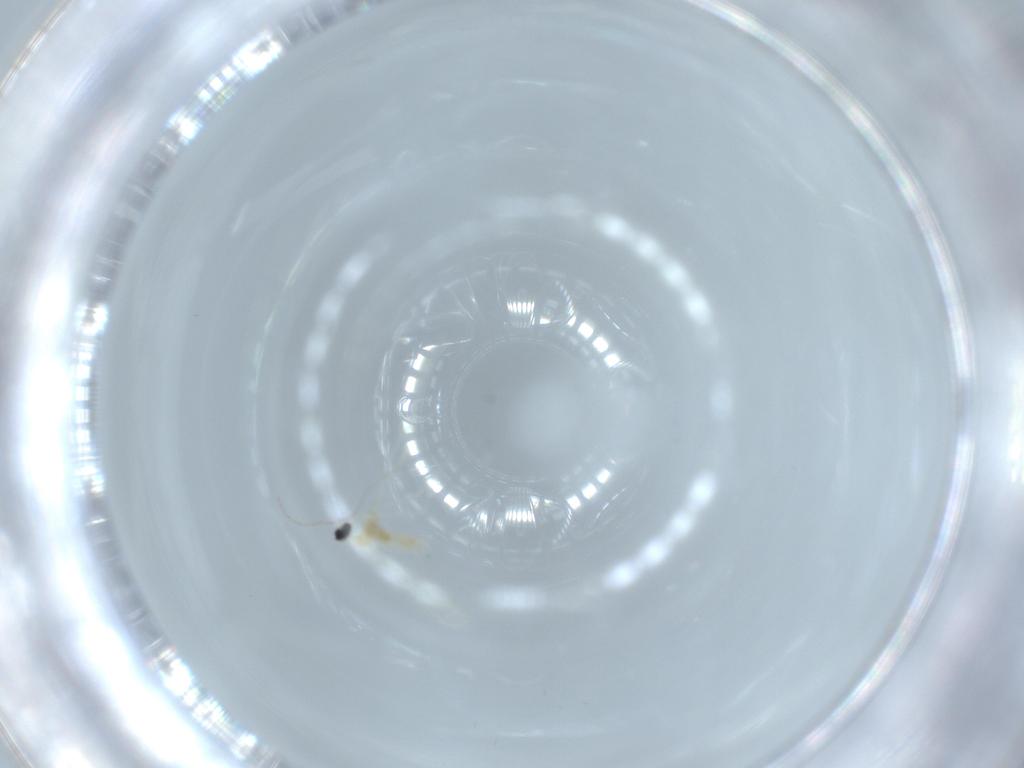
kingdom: Animalia
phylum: Arthropoda
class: Insecta
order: Diptera
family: Cecidomyiidae
